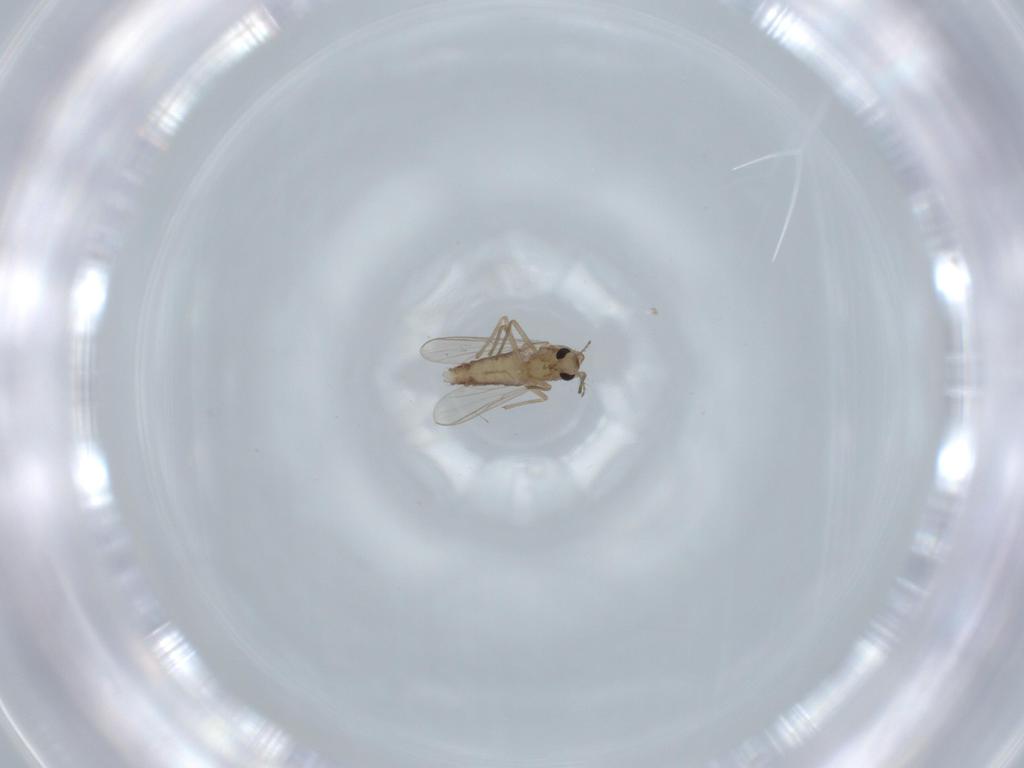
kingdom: Animalia
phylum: Arthropoda
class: Insecta
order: Diptera
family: Chironomidae
